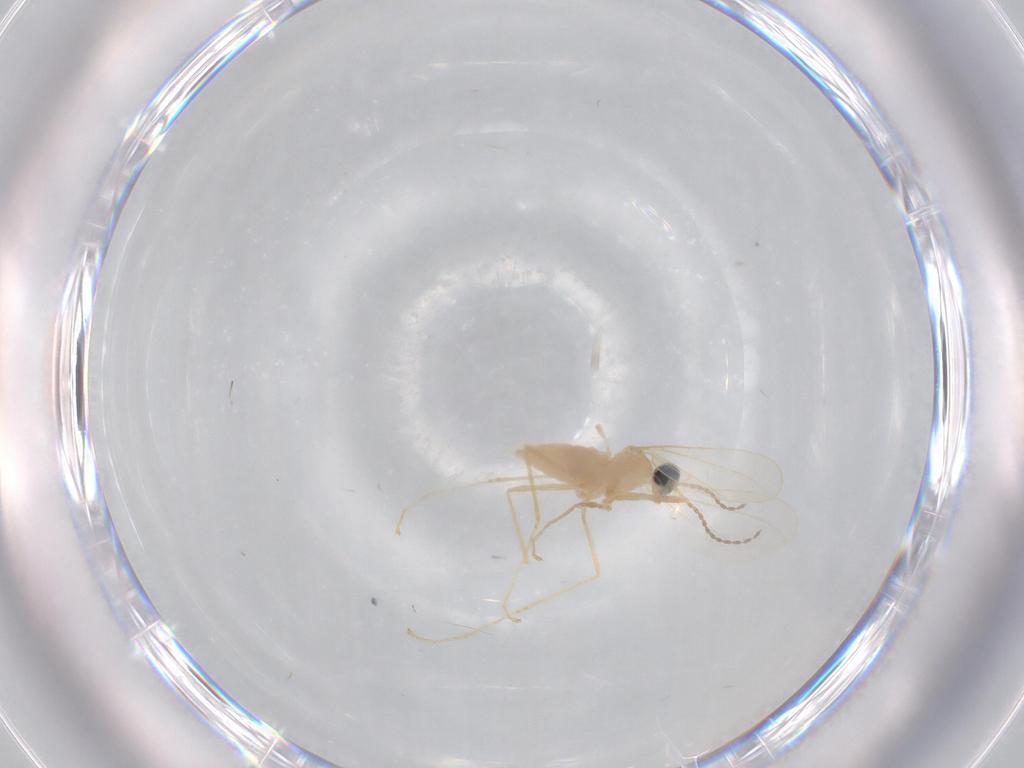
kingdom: Animalia
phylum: Arthropoda
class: Insecta
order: Diptera
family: Cecidomyiidae
